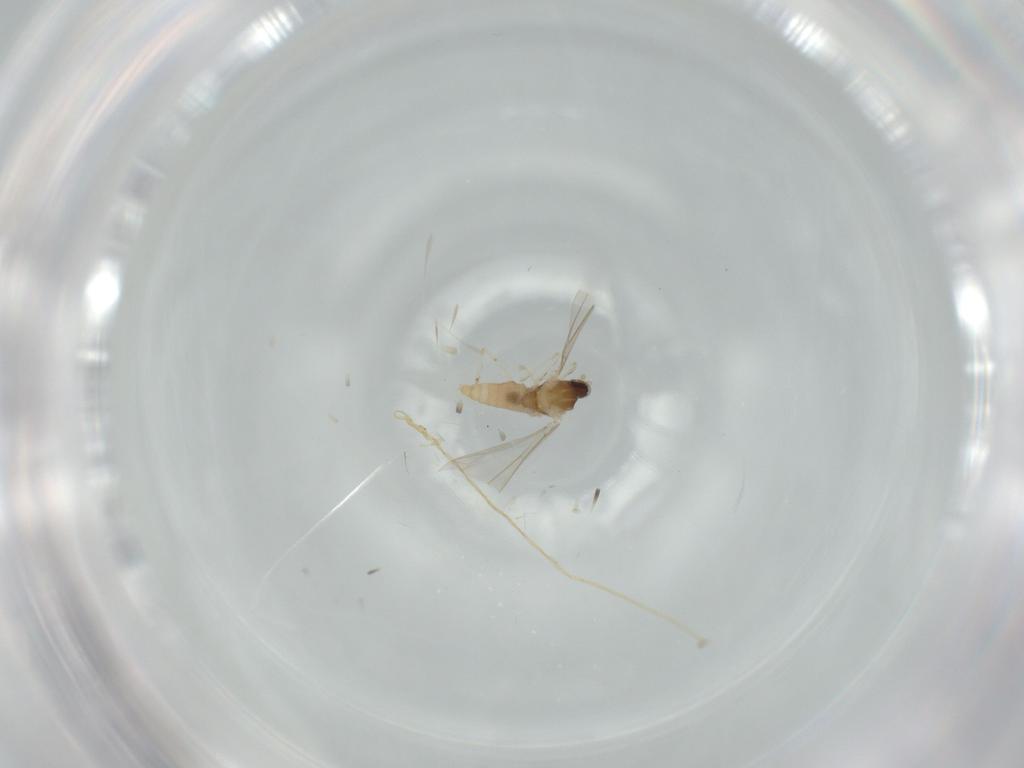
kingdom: Animalia
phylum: Arthropoda
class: Insecta
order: Diptera
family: Cecidomyiidae
